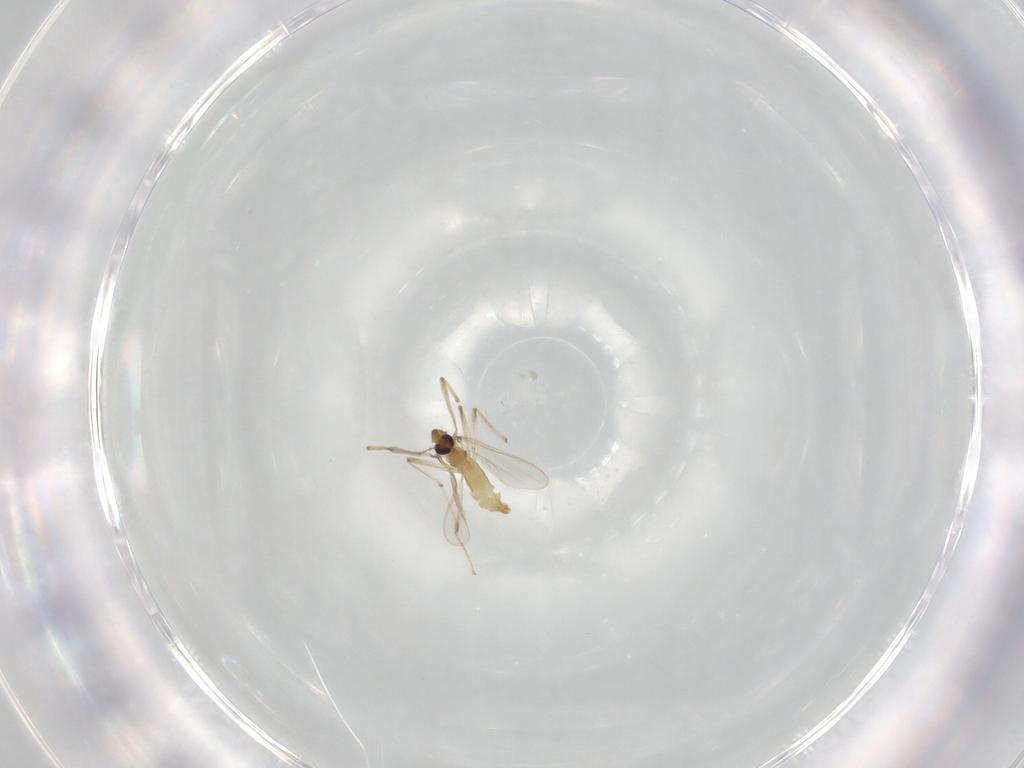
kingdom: Animalia
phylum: Arthropoda
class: Insecta
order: Diptera
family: Chironomidae
